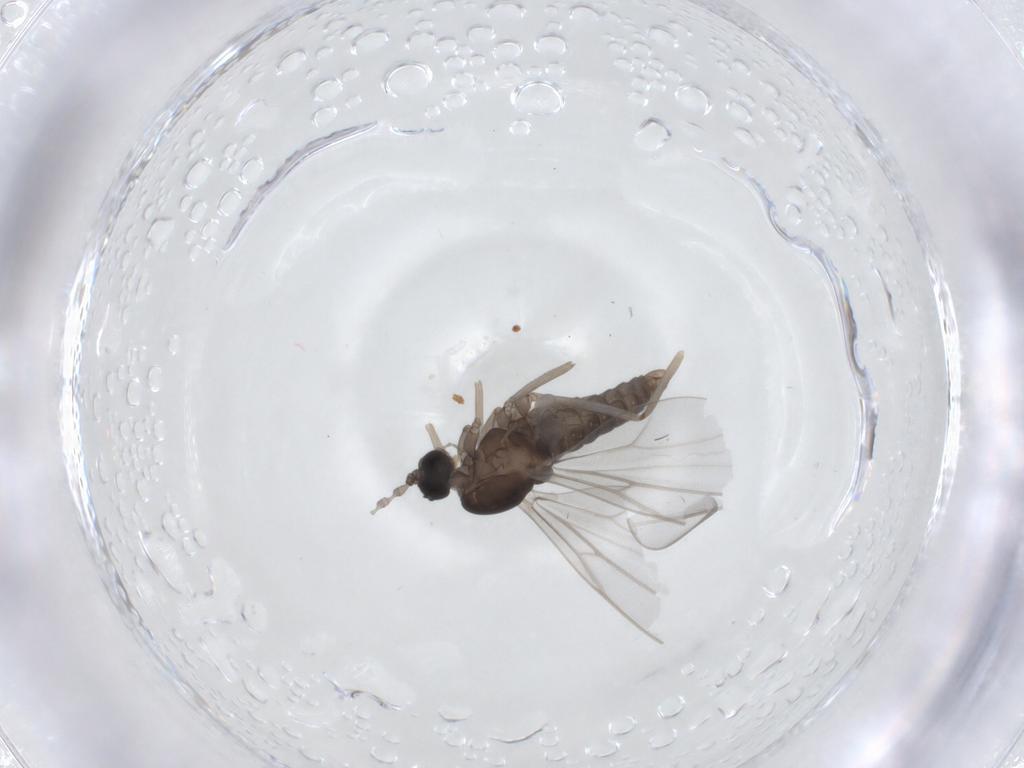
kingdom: Animalia
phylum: Arthropoda
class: Insecta
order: Diptera
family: Cecidomyiidae
